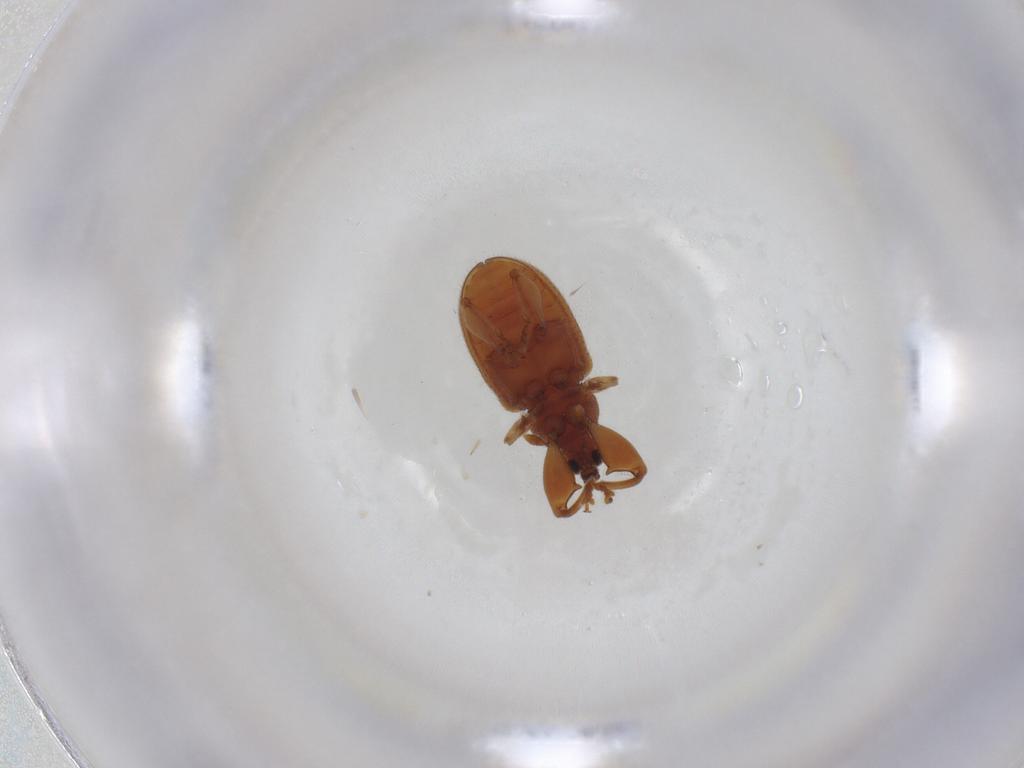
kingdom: Animalia
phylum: Arthropoda
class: Insecta
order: Coleoptera
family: Curculionidae
